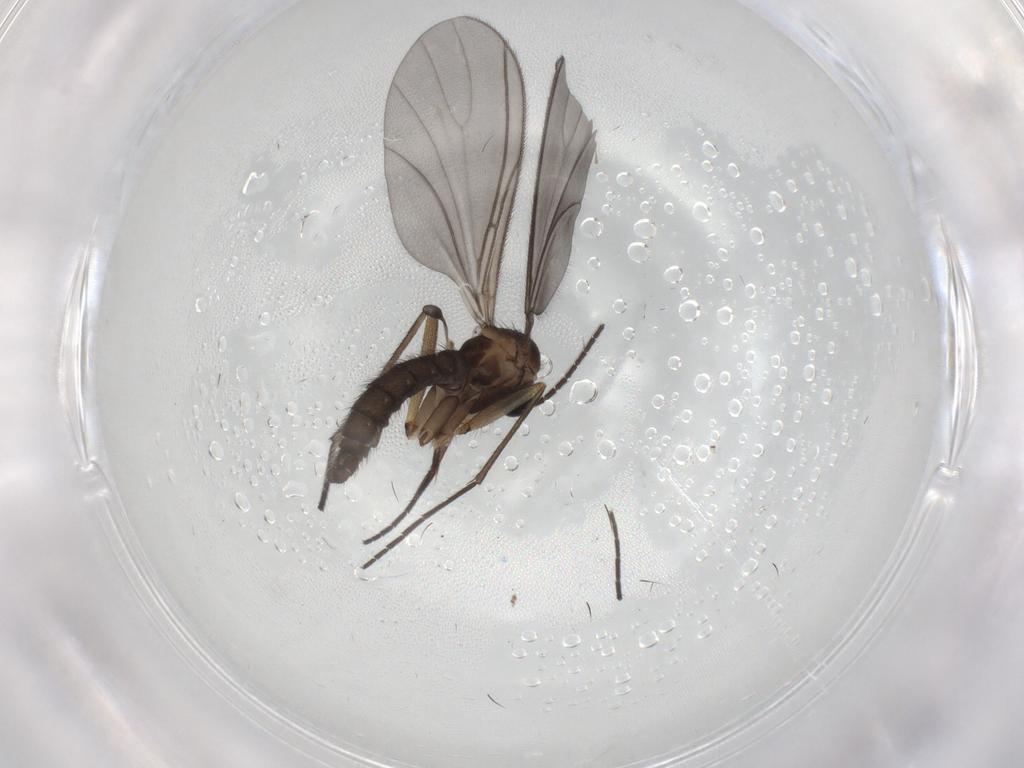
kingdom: Animalia
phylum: Arthropoda
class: Insecta
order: Diptera
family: Sciaridae
